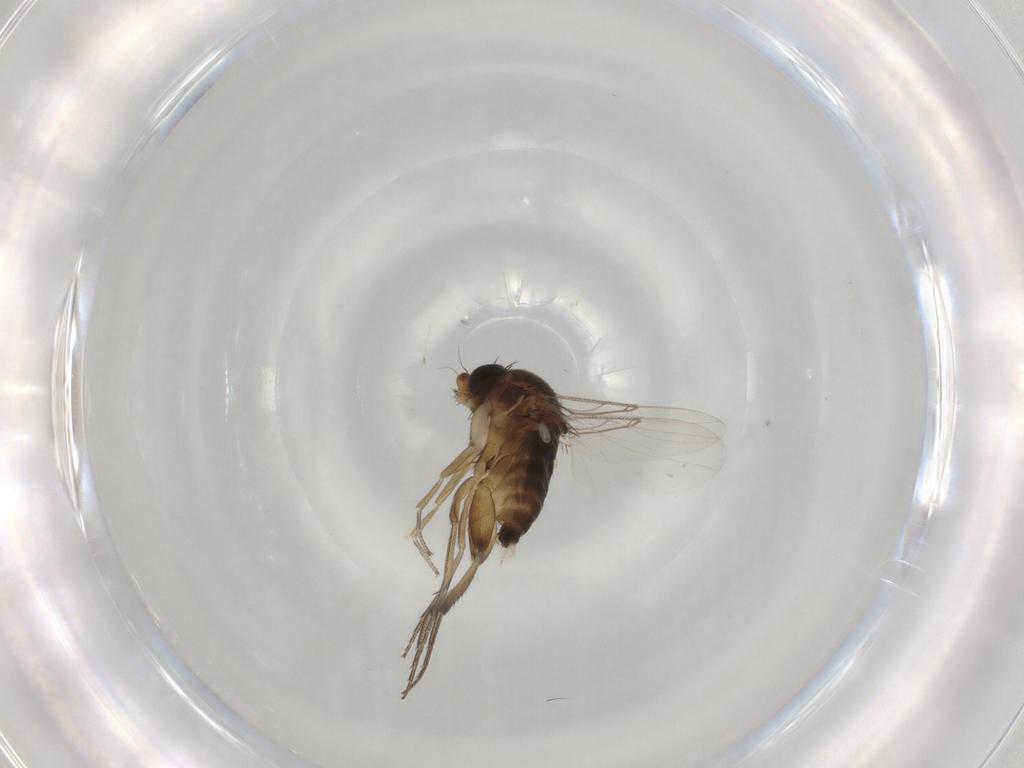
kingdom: Animalia
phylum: Arthropoda
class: Insecta
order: Diptera
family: Phoridae
